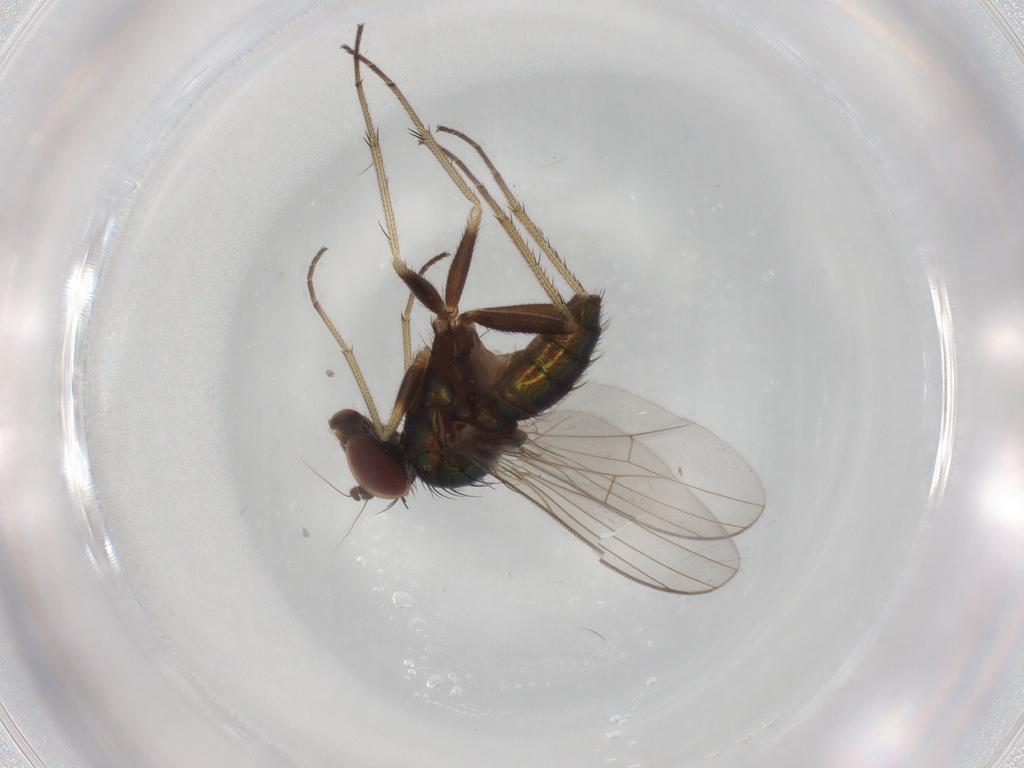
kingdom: Animalia
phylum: Arthropoda
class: Insecta
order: Diptera
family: Dolichopodidae
